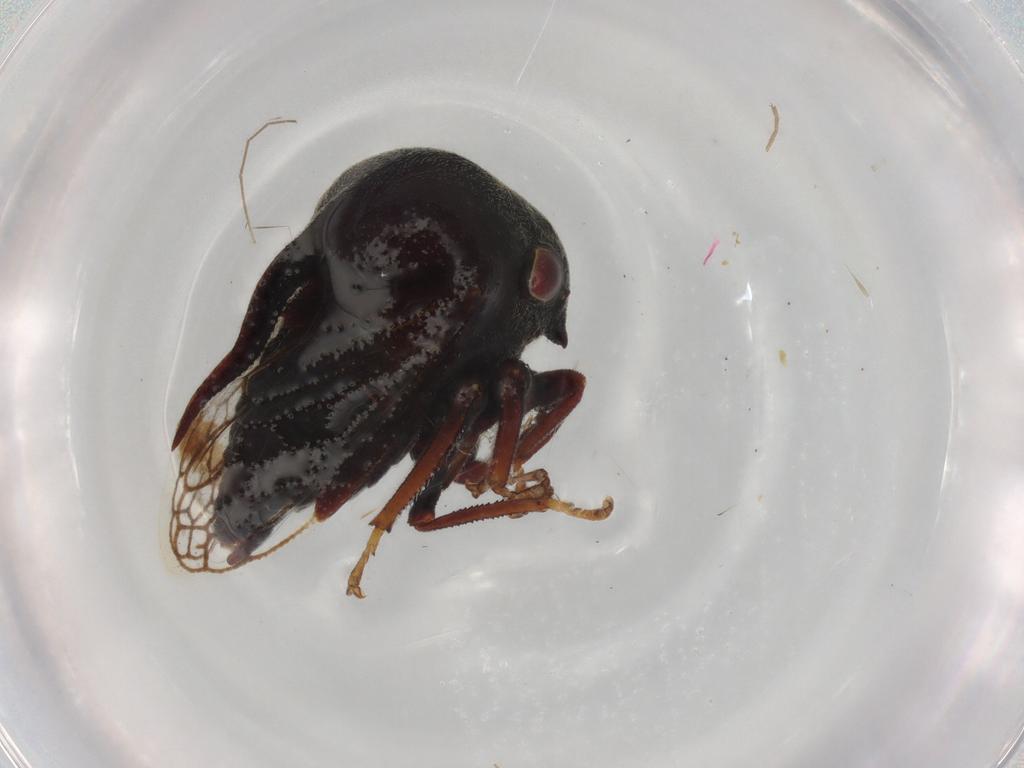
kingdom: Animalia
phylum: Arthropoda
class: Insecta
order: Hemiptera
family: Membracidae
